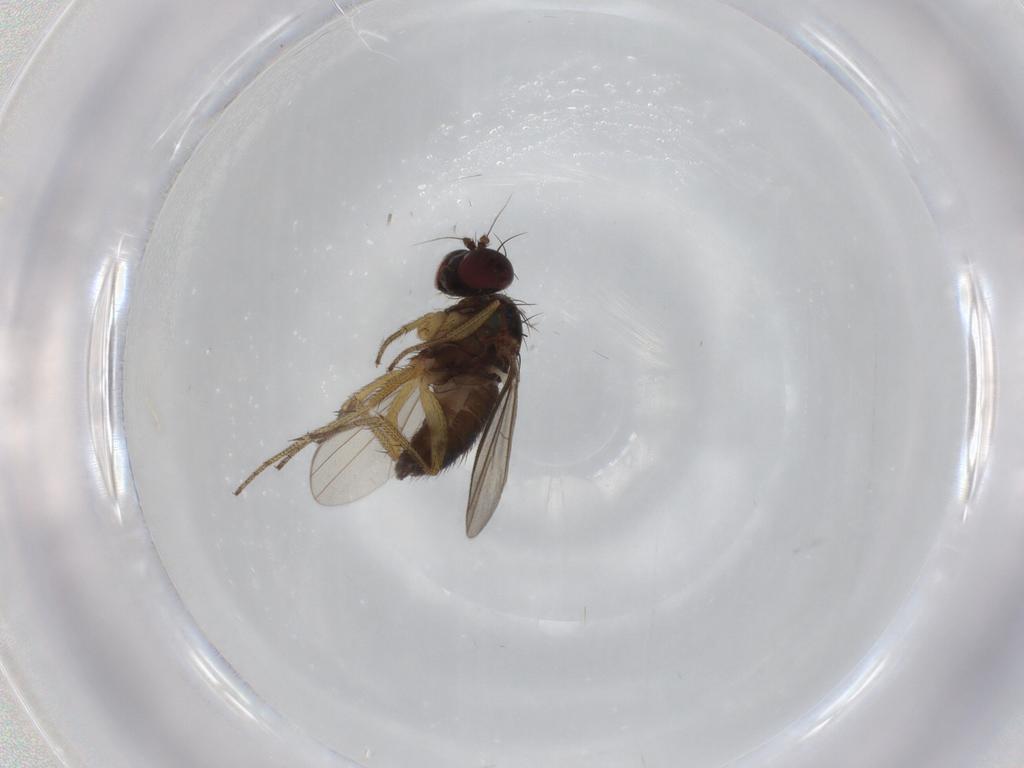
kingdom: Animalia
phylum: Arthropoda
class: Insecta
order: Diptera
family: Dolichopodidae
